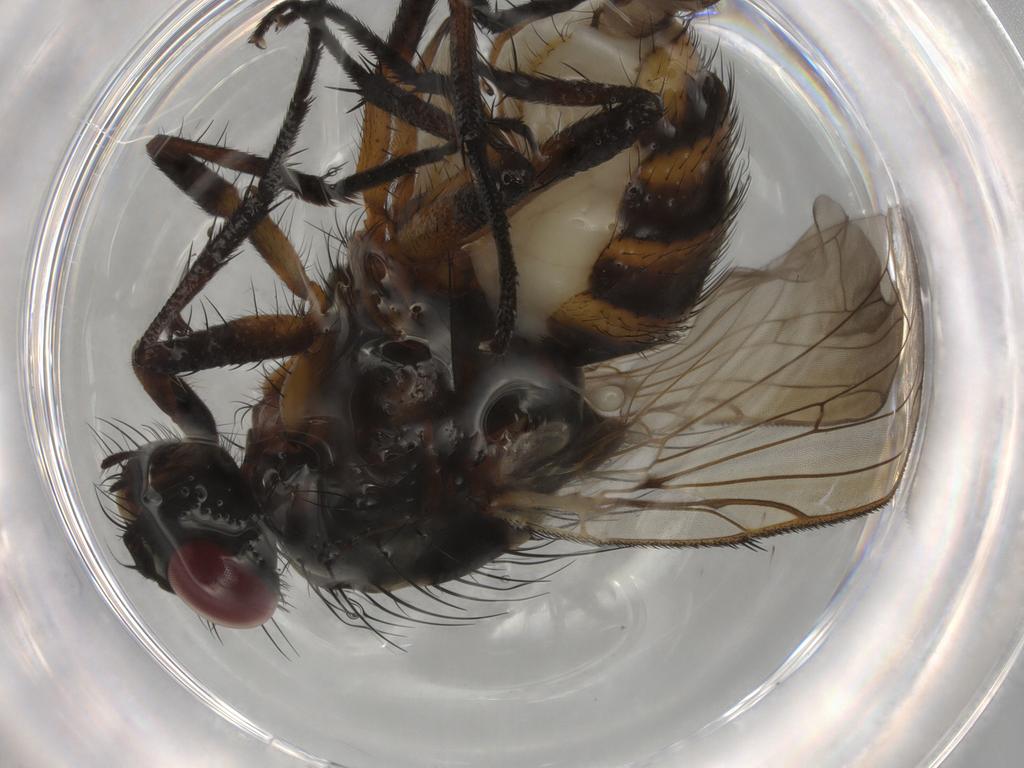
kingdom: Animalia
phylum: Arthropoda
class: Insecta
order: Diptera
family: Anthomyiidae
